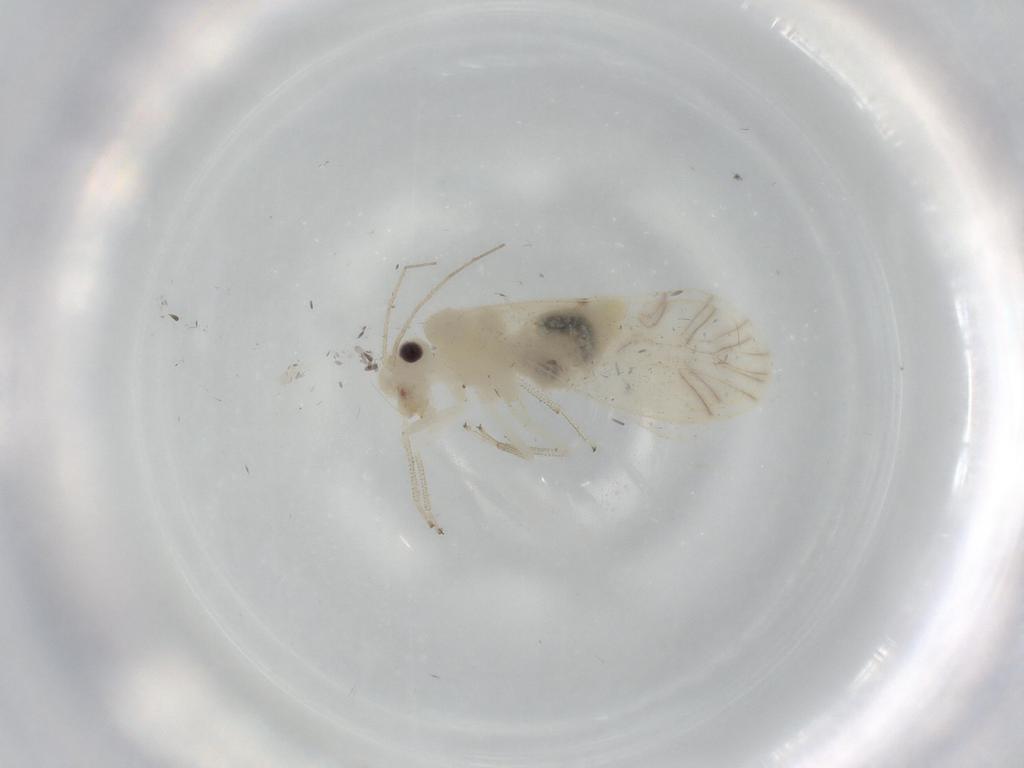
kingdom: Animalia
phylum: Arthropoda
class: Insecta
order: Psocodea
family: Caeciliusidae
